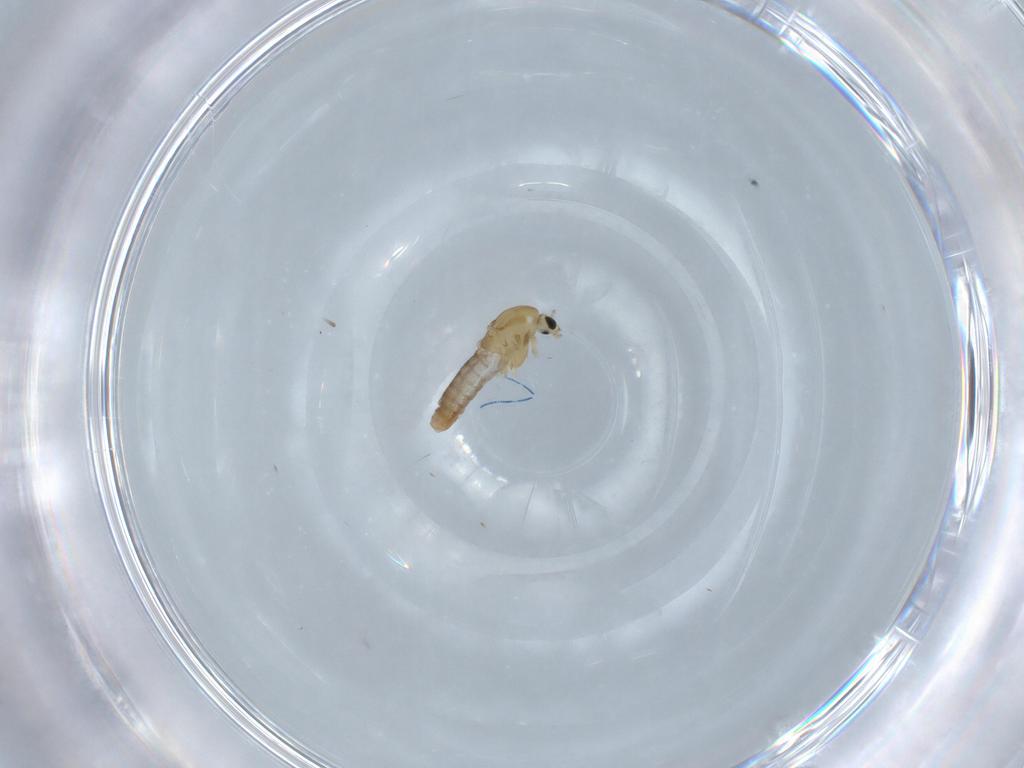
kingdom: Animalia
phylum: Arthropoda
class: Insecta
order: Diptera
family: Chironomidae
